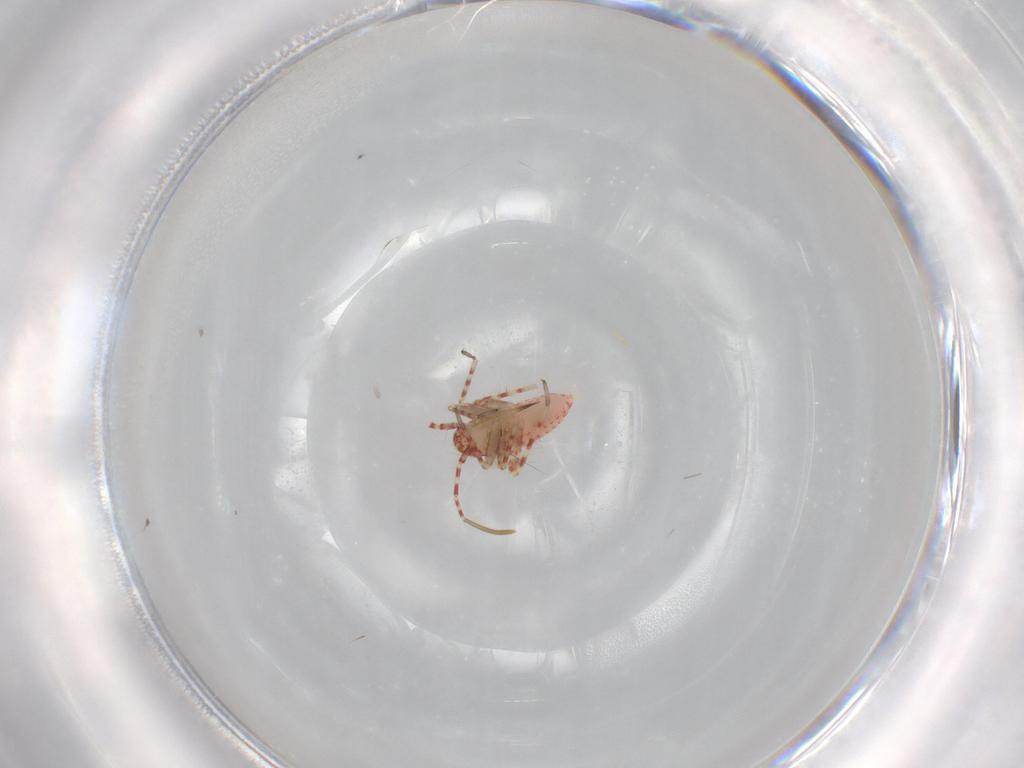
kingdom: Animalia
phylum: Arthropoda
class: Insecta
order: Hemiptera
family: Miridae
